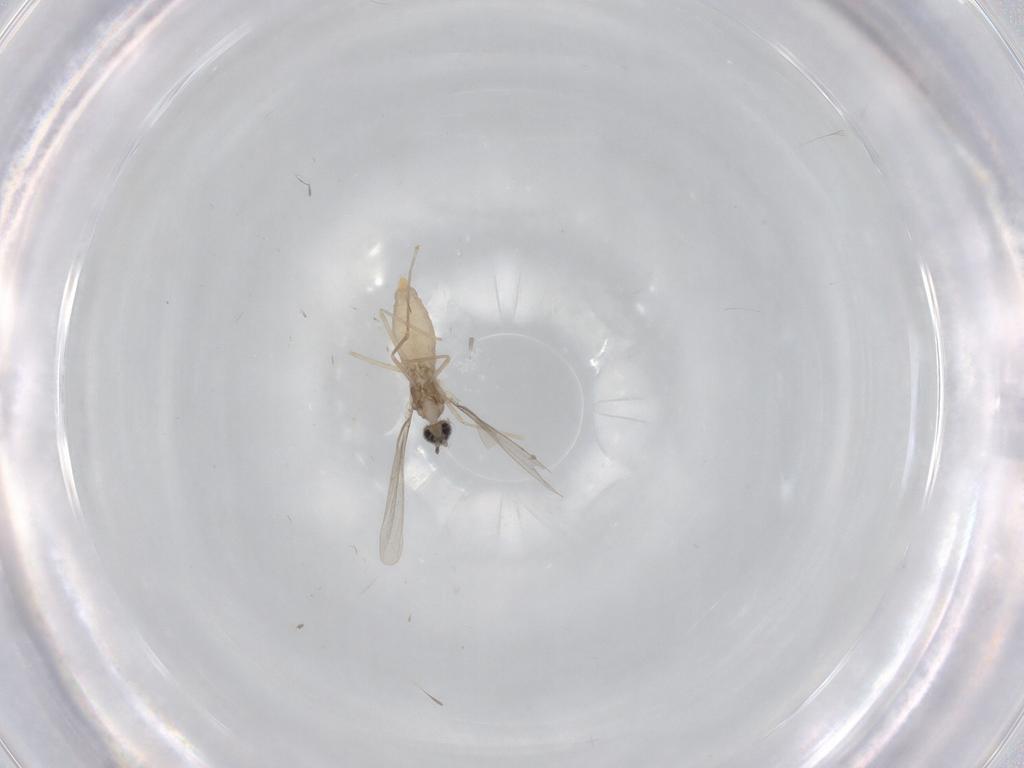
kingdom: Animalia
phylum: Arthropoda
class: Insecta
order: Diptera
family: Cecidomyiidae
